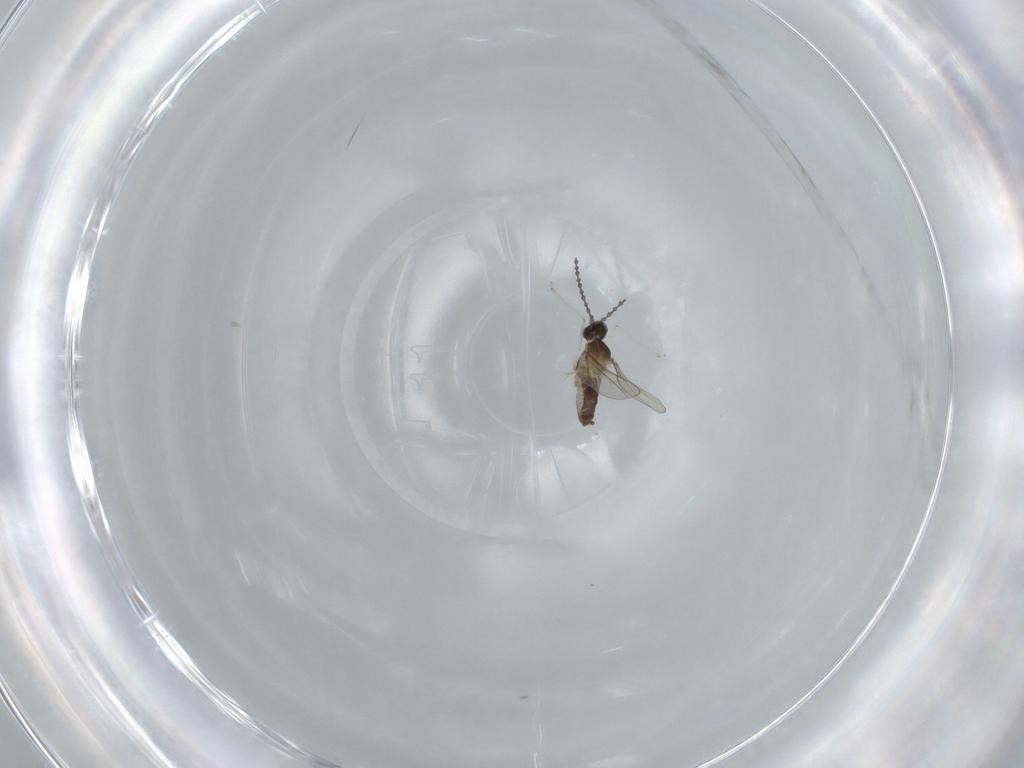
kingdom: Animalia
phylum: Arthropoda
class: Insecta
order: Diptera
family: Cecidomyiidae
